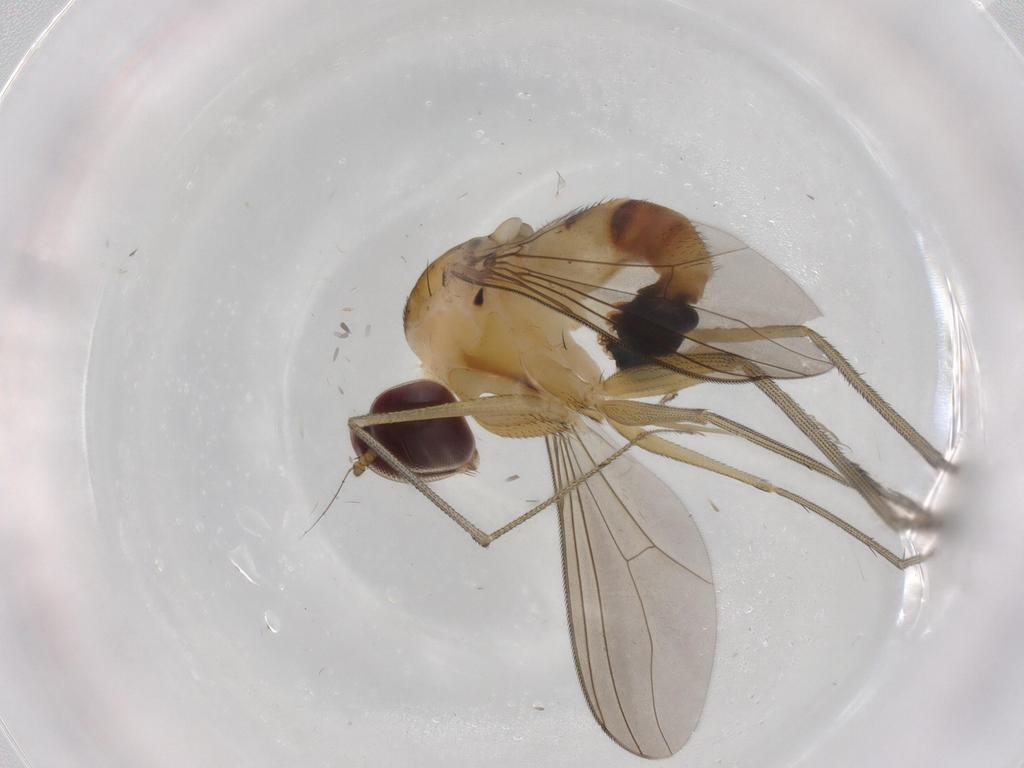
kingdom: Animalia
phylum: Arthropoda
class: Insecta
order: Diptera
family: Dolichopodidae
